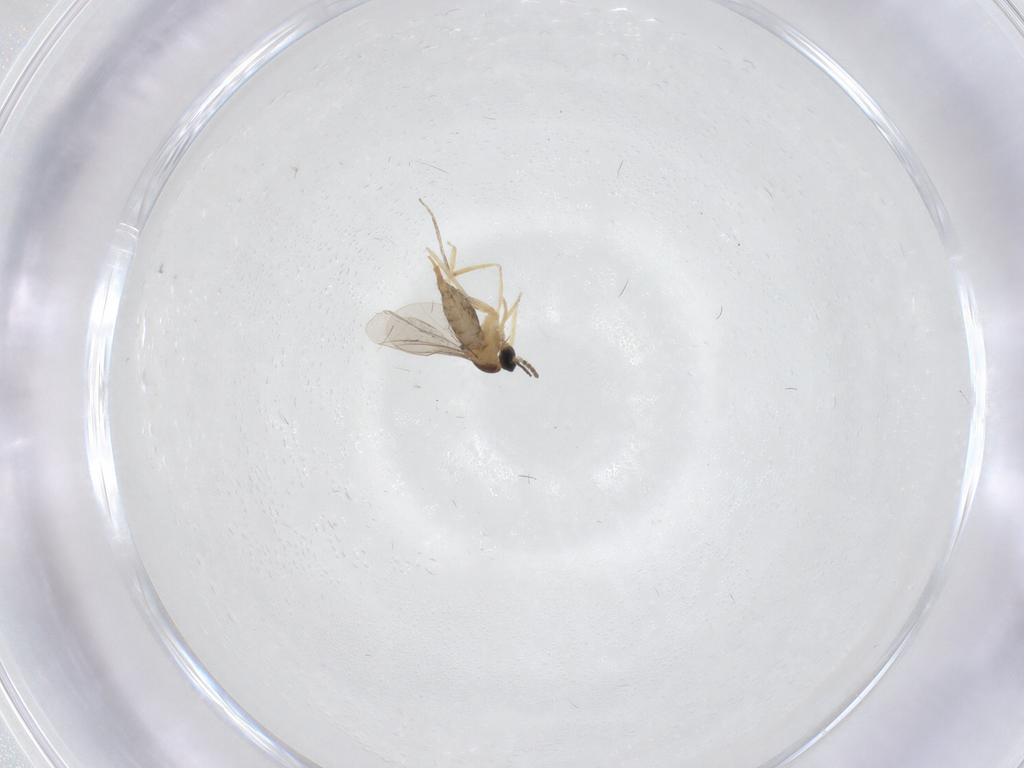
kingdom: Animalia
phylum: Arthropoda
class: Insecta
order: Diptera
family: Cecidomyiidae
